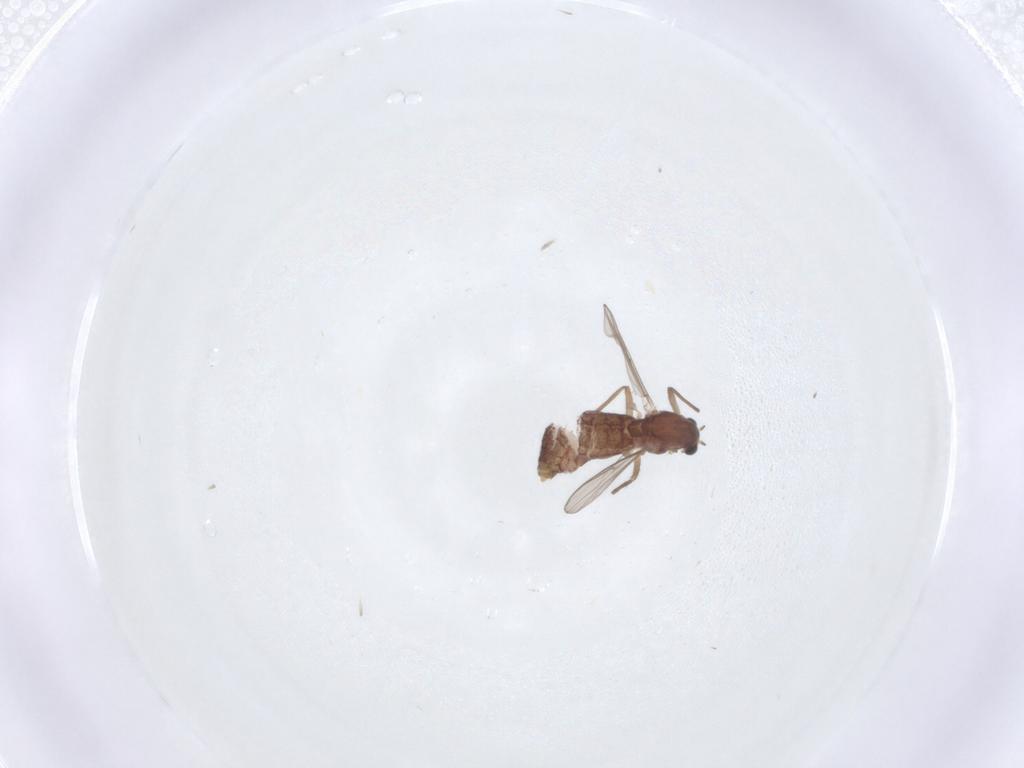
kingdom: Animalia
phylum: Arthropoda
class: Insecta
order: Diptera
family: Chironomidae
